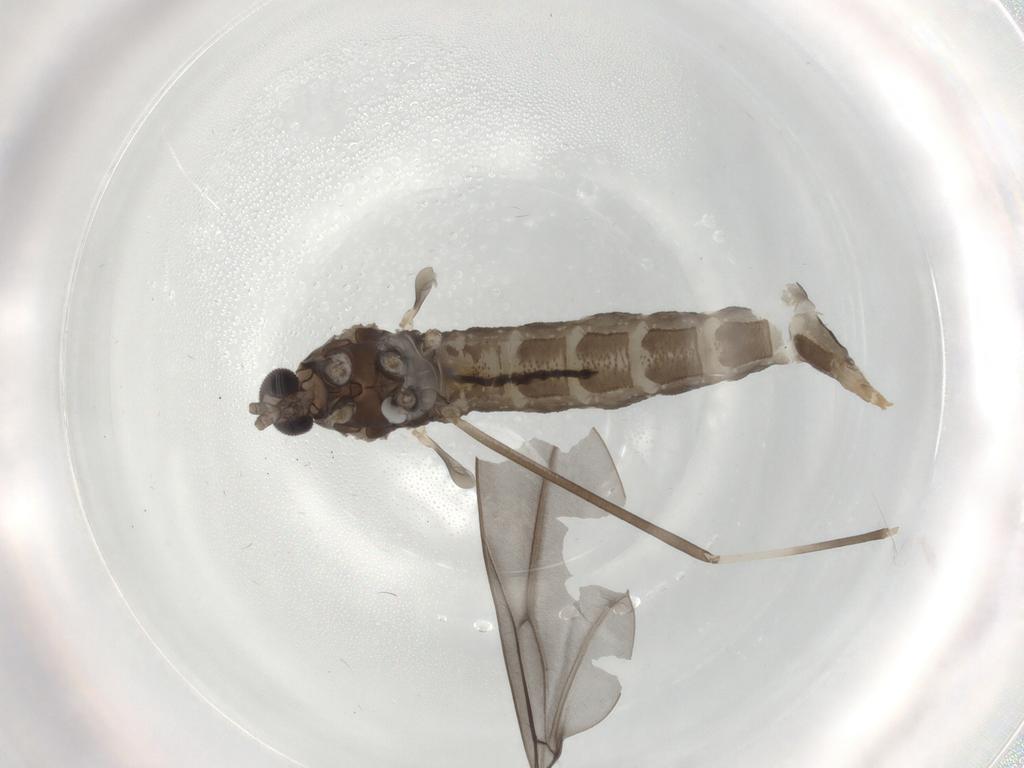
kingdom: Animalia
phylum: Arthropoda
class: Insecta
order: Diptera
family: Cecidomyiidae
